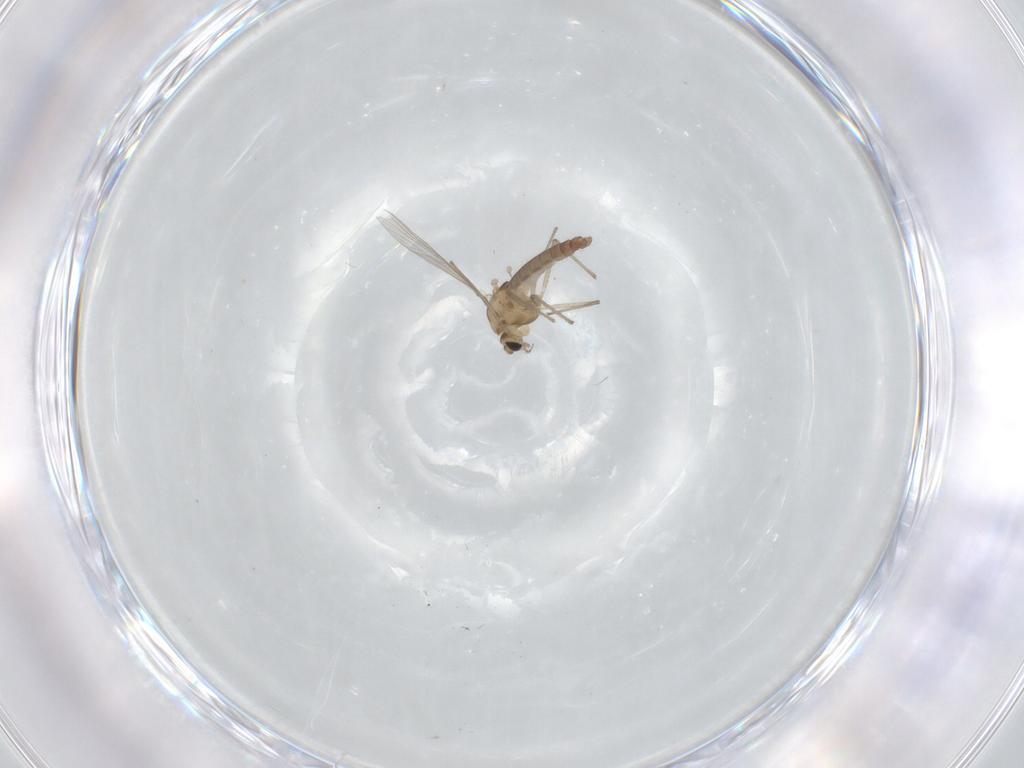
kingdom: Animalia
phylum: Arthropoda
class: Insecta
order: Diptera
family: Chironomidae
